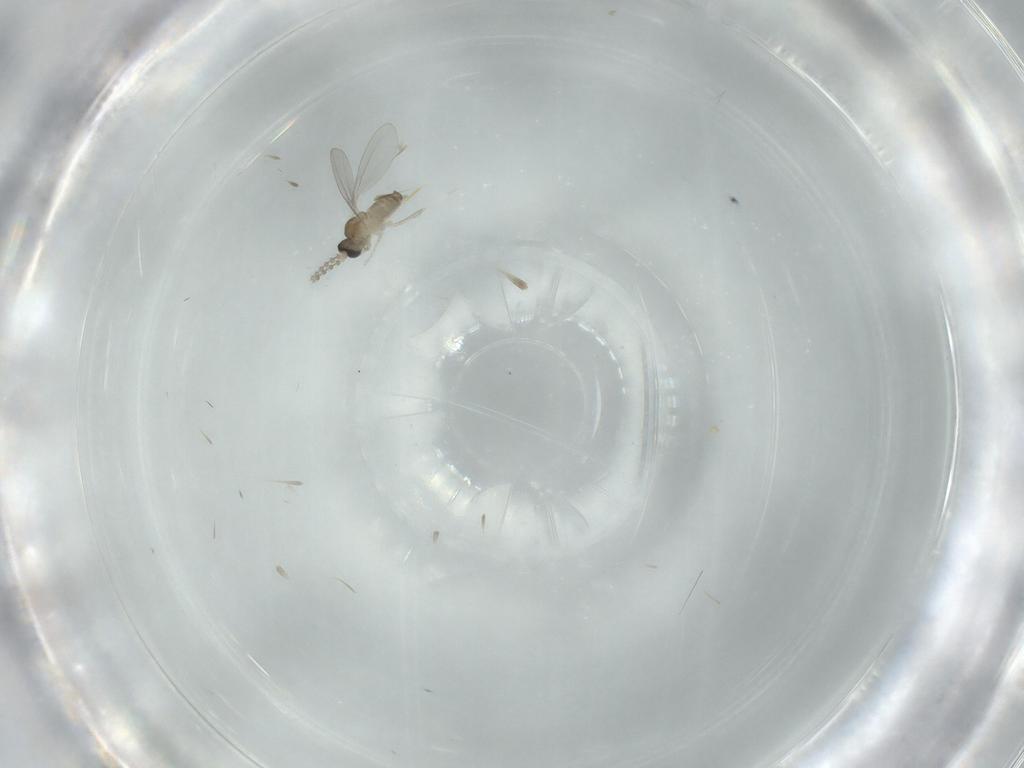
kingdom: Animalia
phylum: Arthropoda
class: Insecta
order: Diptera
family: Cecidomyiidae
